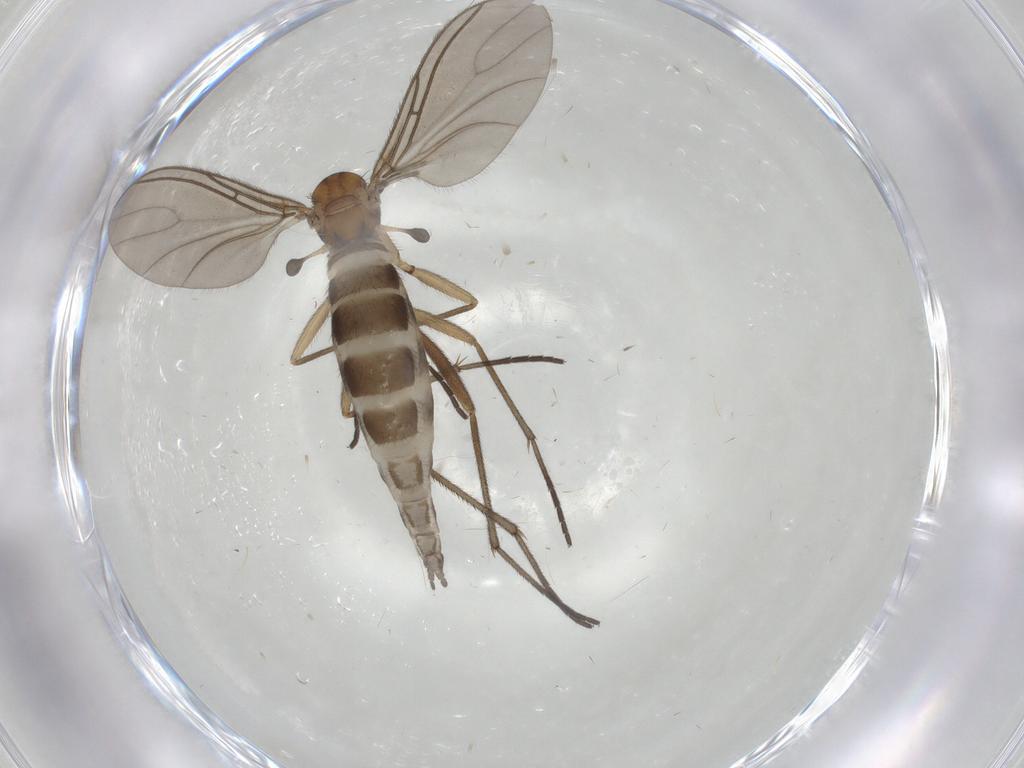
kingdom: Animalia
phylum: Arthropoda
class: Insecta
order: Diptera
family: Sciaridae
